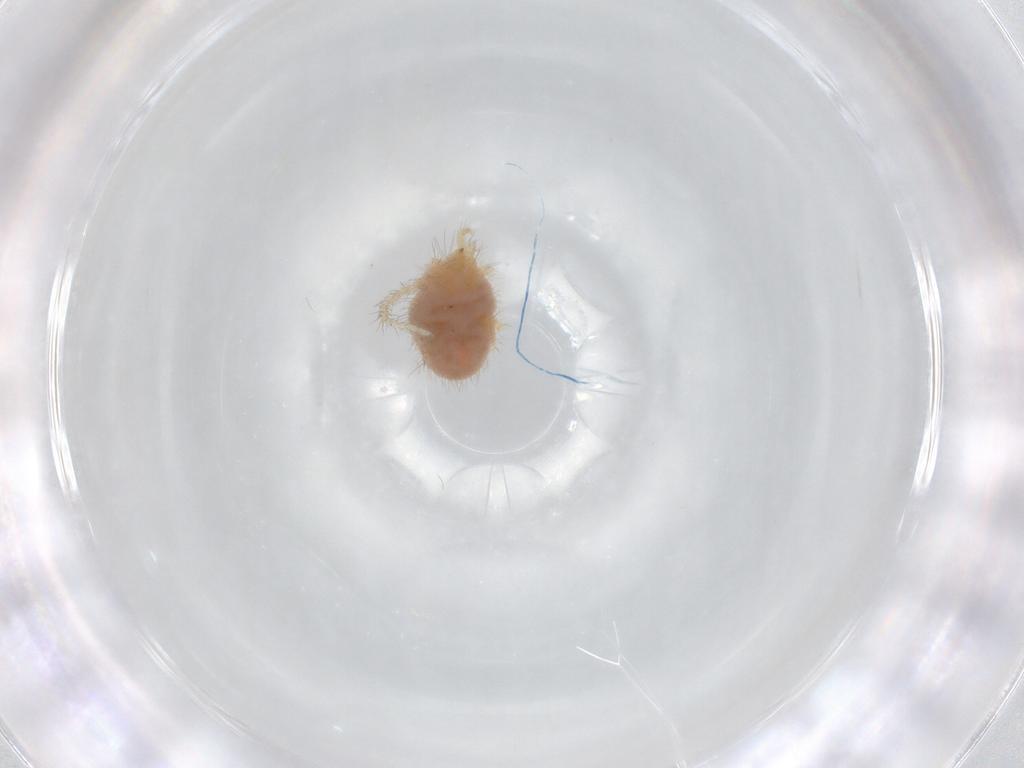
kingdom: Animalia
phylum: Arthropoda
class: Arachnida
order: Trombidiformes
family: Erythraeidae
